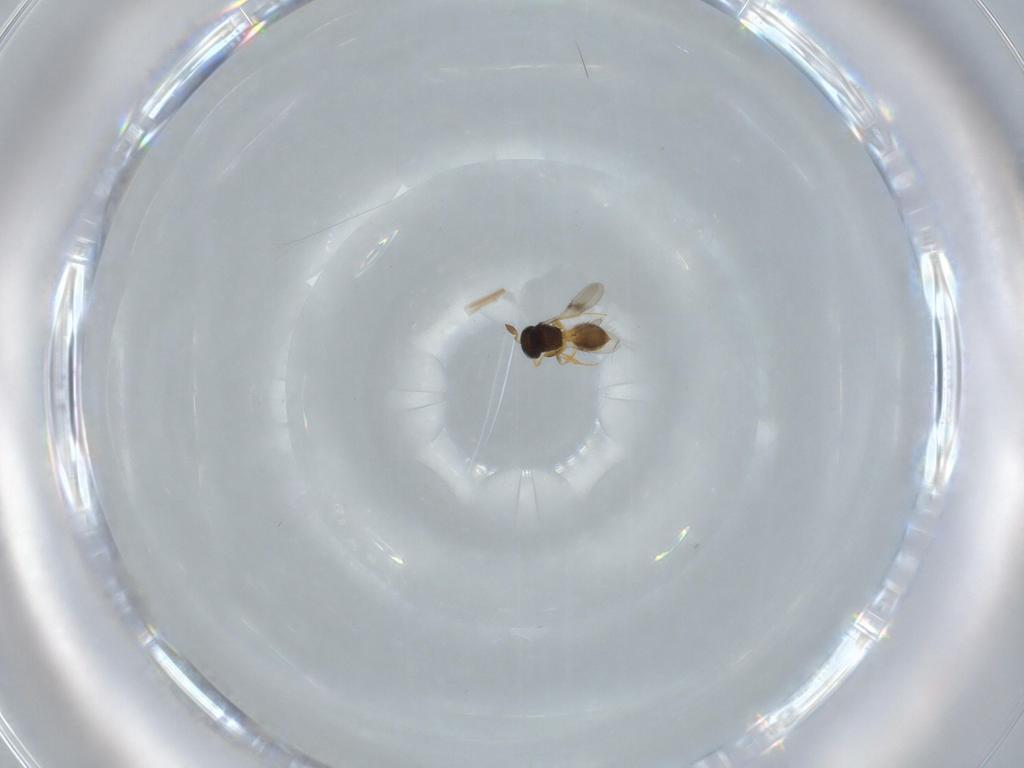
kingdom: Animalia
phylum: Arthropoda
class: Insecta
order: Hymenoptera
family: Scelionidae
